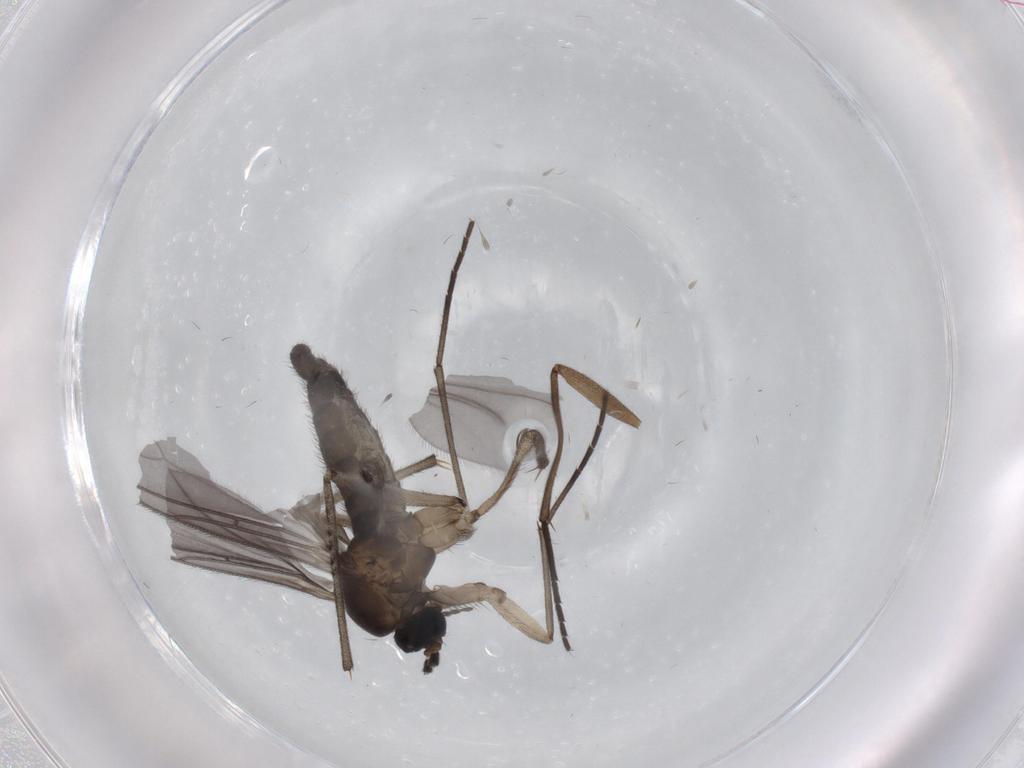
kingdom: Animalia
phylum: Arthropoda
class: Insecta
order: Diptera
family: Sciaridae
